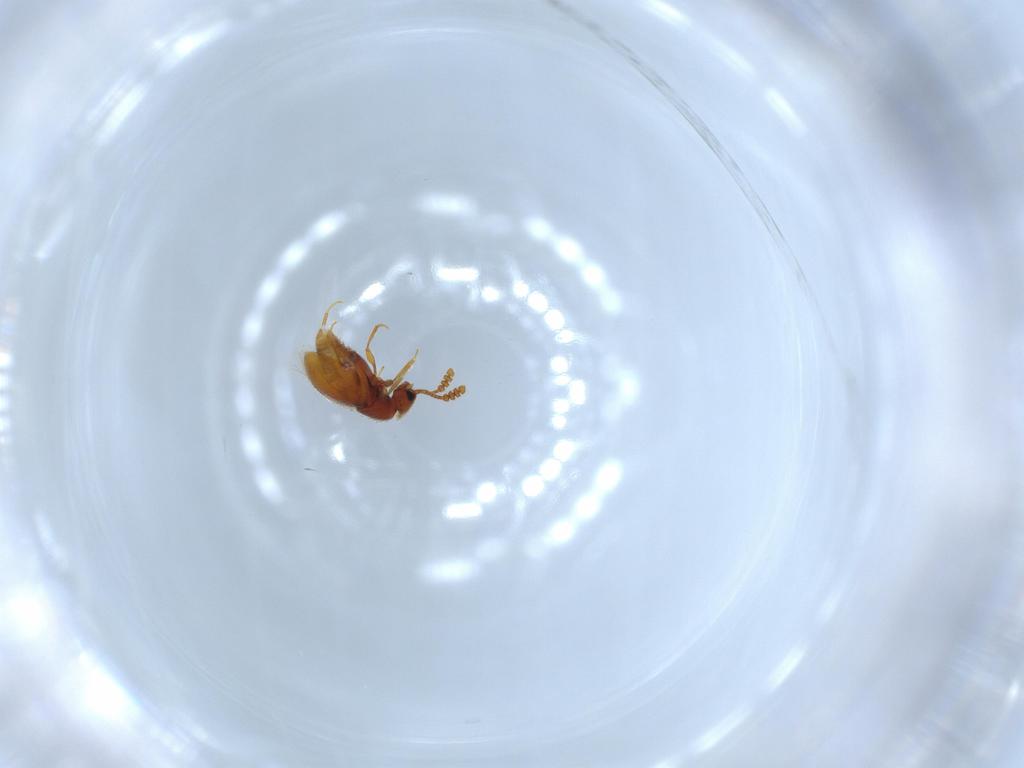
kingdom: Animalia
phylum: Arthropoda
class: Insecta
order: Coleoptera
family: Staphylinidae
